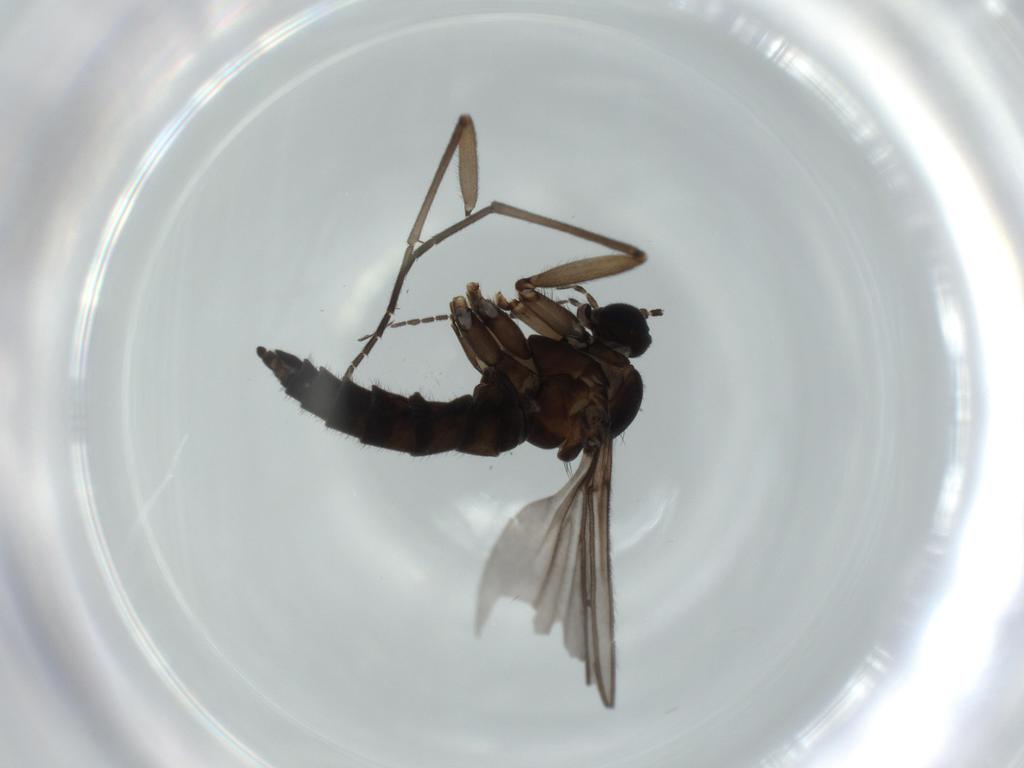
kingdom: Animalia
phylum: Arthropoda
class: Insecta
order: Diptera
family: Sciaridae
